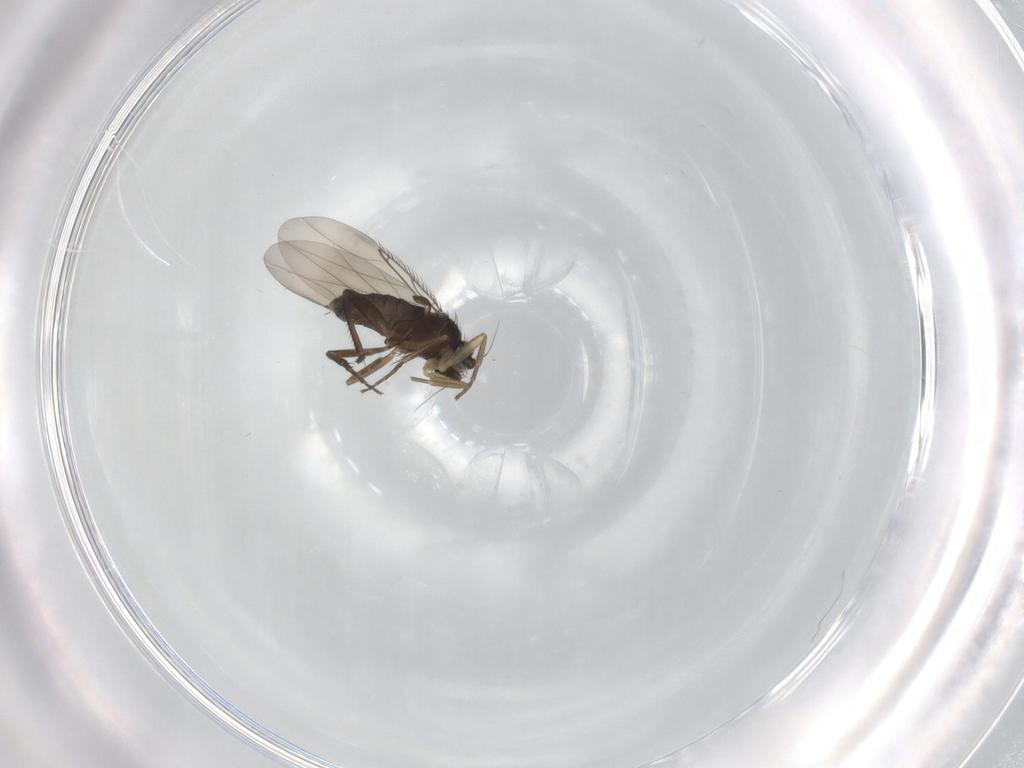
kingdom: Animalia
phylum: Arthropoda
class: Insecta
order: Diptera
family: Phoridae
